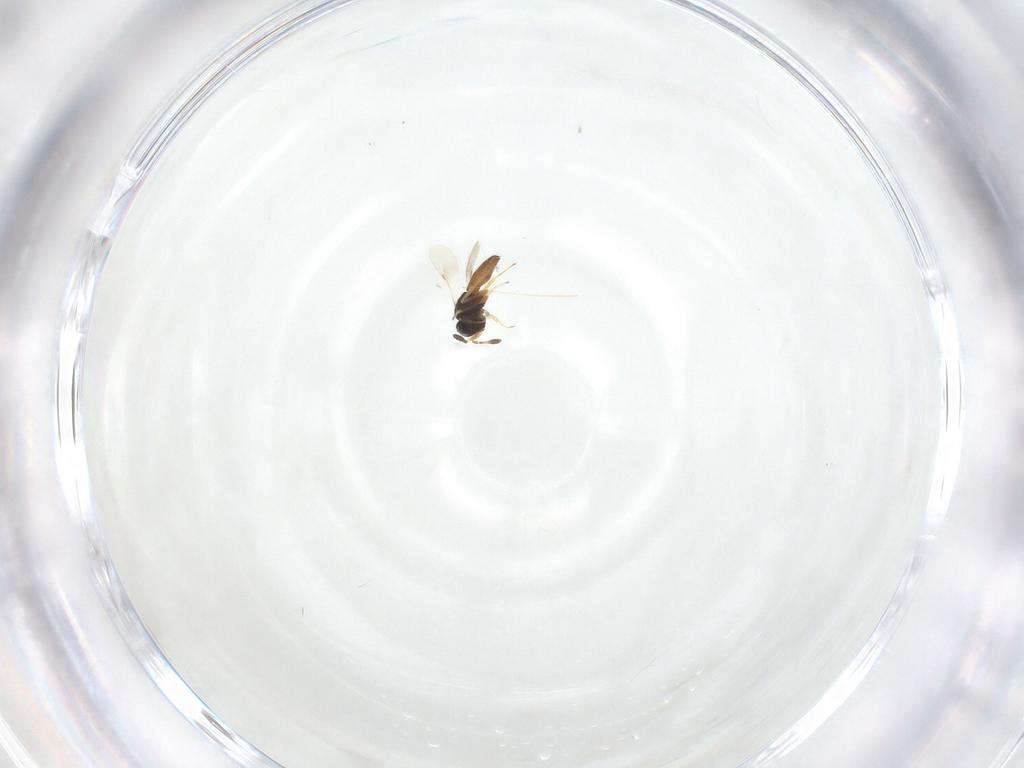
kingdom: Animalia
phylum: Arthropoda
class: Insecta
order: Hymenoptera
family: Scelionidae
